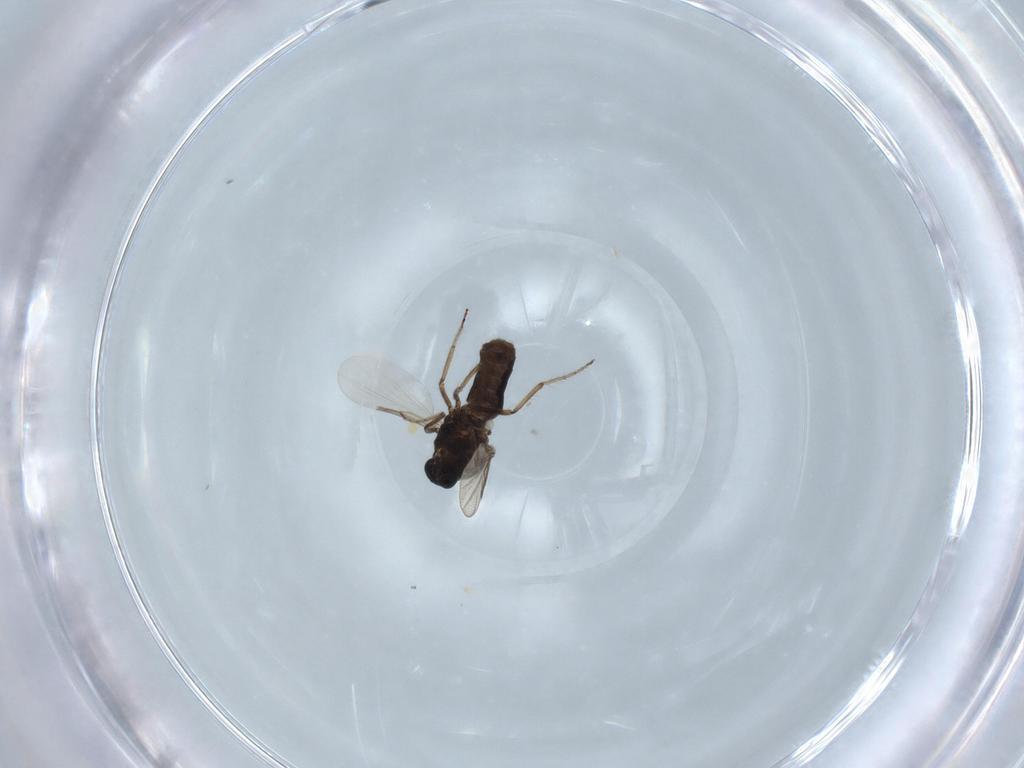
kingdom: Animalia
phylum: Arthropoda
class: Insecta
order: Diptera
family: Ceratopogonidae
